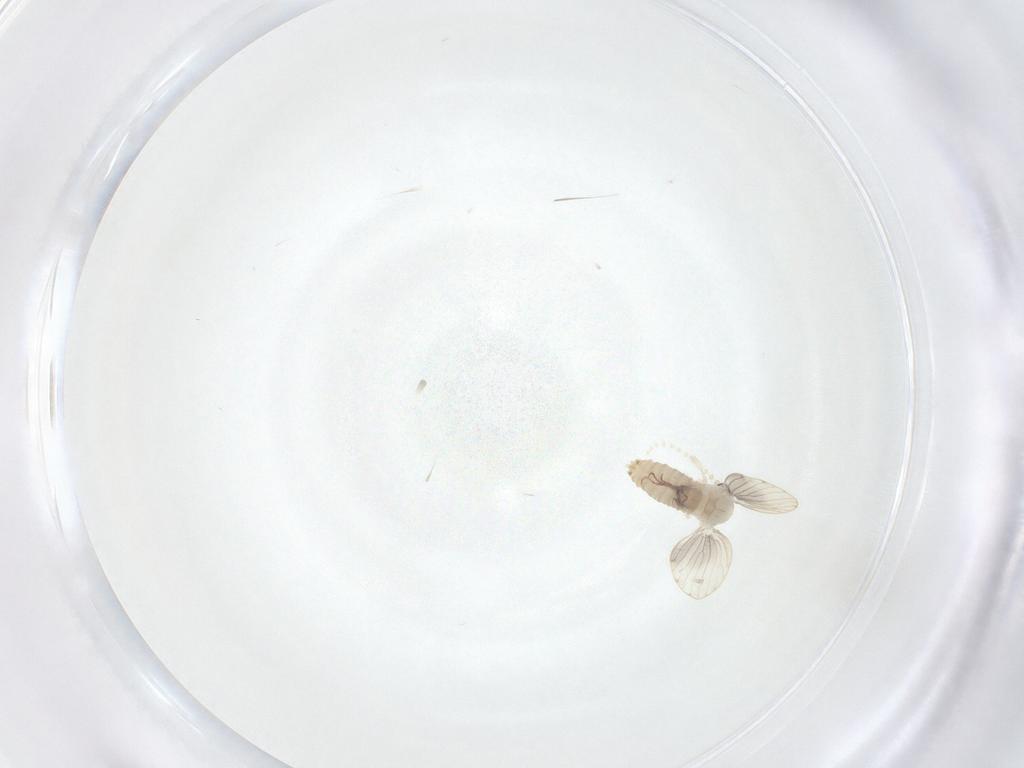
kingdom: Animalia
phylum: Arthropoda
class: Insecta
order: Diptera
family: Psychodidae
